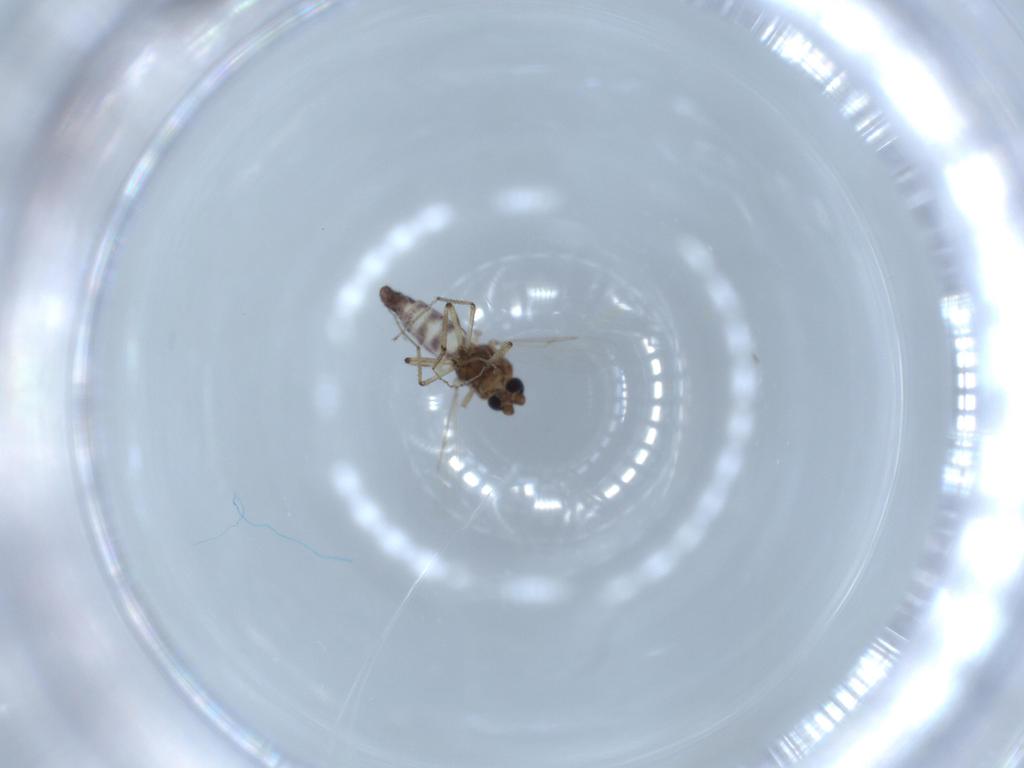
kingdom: Animalia
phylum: Arthropoda
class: Insecta
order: Diptera
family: Ceratopogonidae
